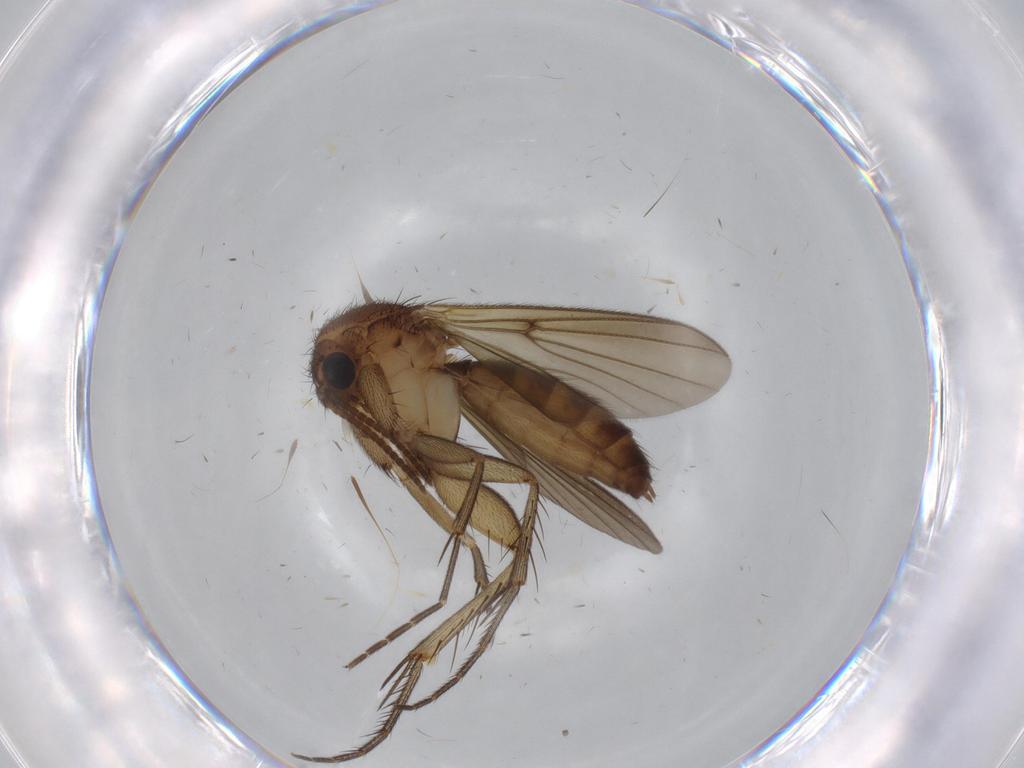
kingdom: Animalia
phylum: Arthropoda
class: Insecta
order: Diptera
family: Mycetophilidae
